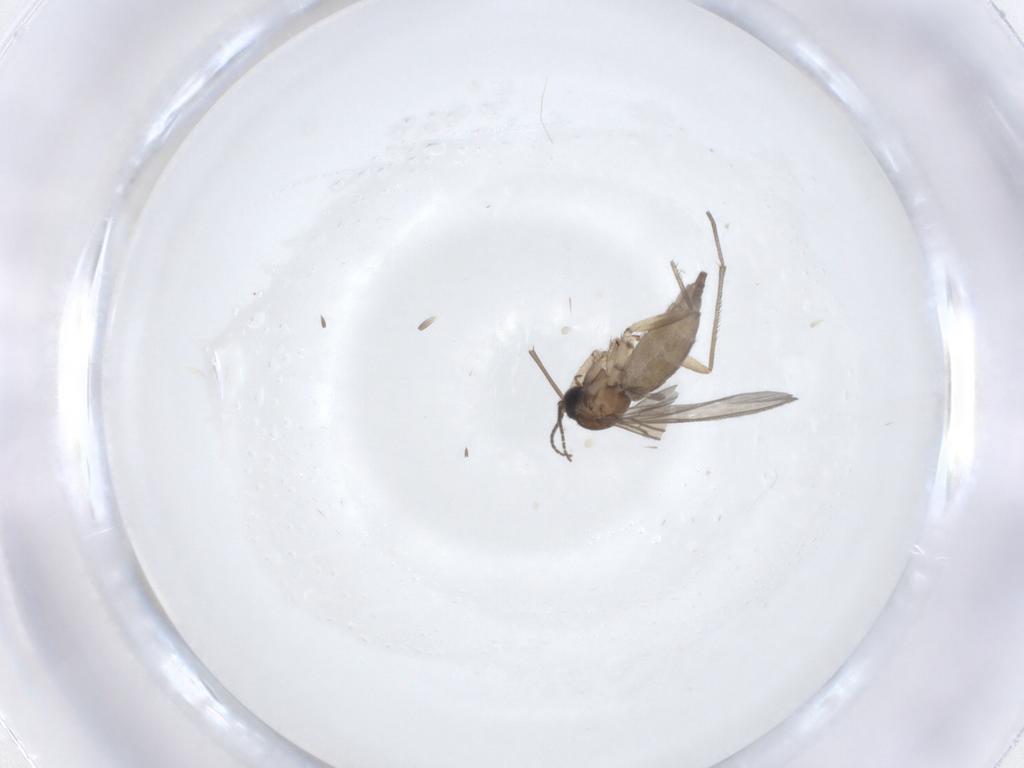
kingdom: Animalia
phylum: Arthropoda
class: Insecta
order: Diptera
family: Sciaridae
